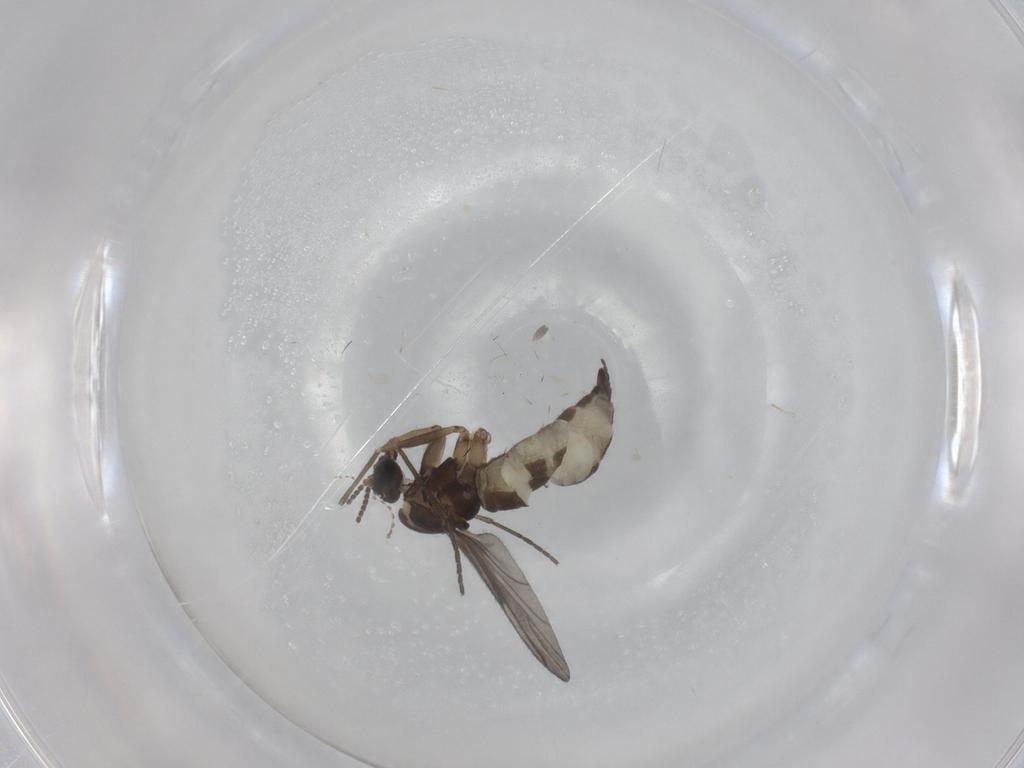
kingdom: Animalia
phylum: Arthropoda
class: Insecta
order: Diptera
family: Sciaridae
